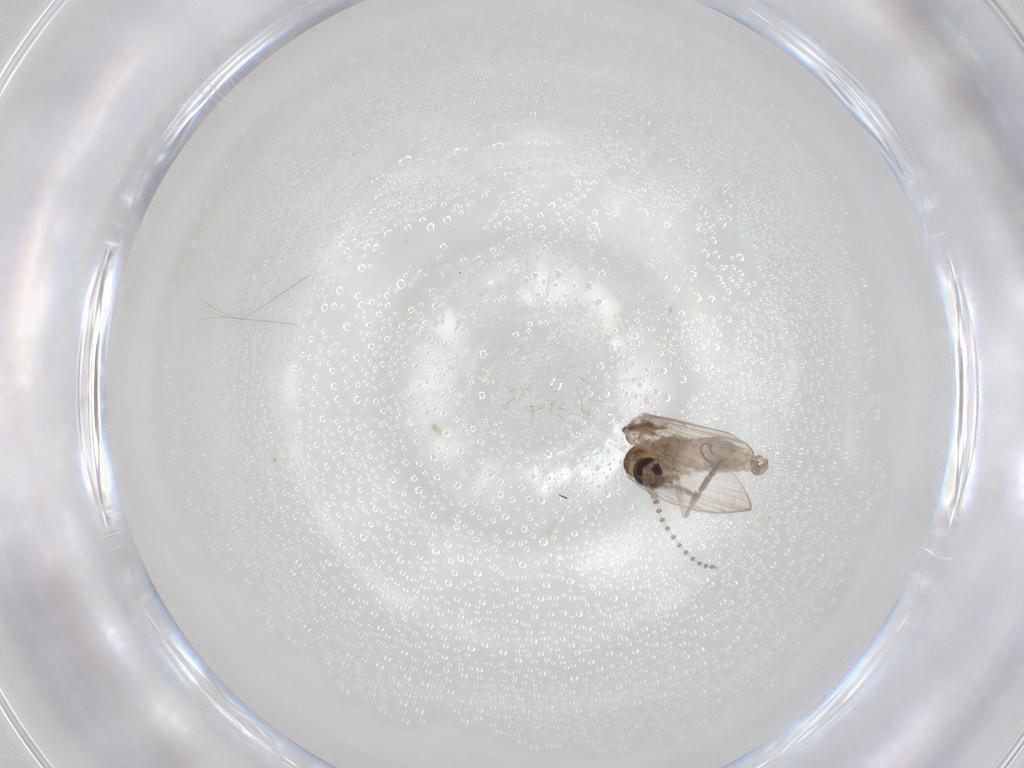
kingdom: Animalia
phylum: Arthropoda
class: Insecta
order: Diptera
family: Psychodidae
